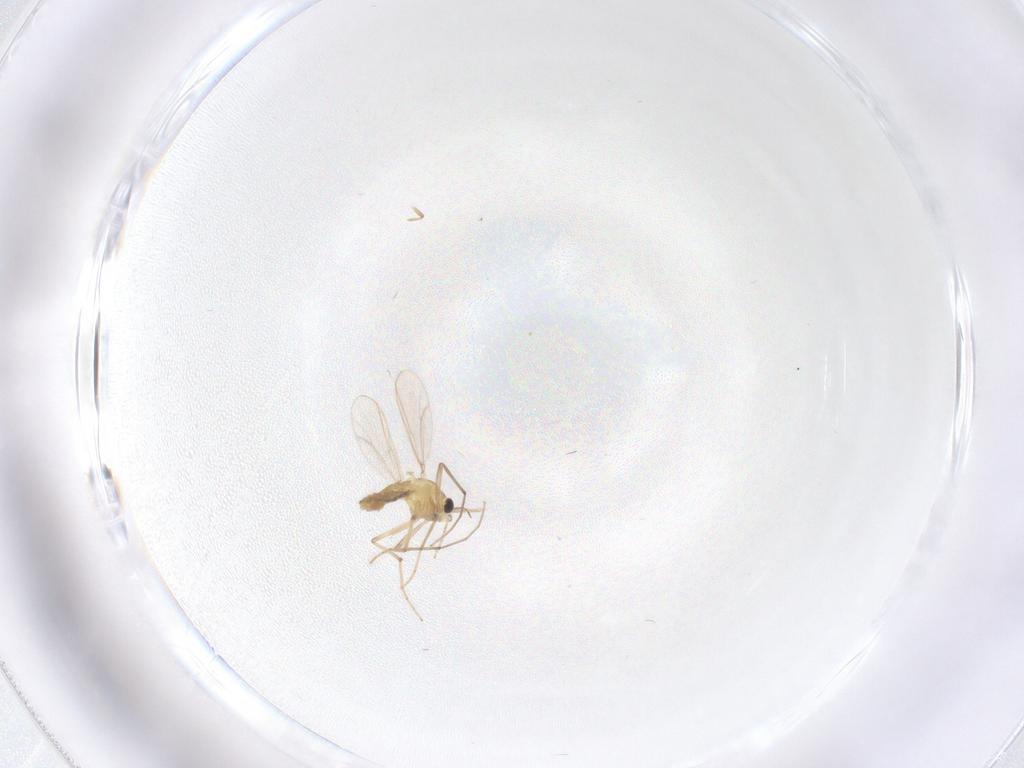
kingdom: Animalia
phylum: Arthropoda
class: Insecta
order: Diptera
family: Chironomidae
